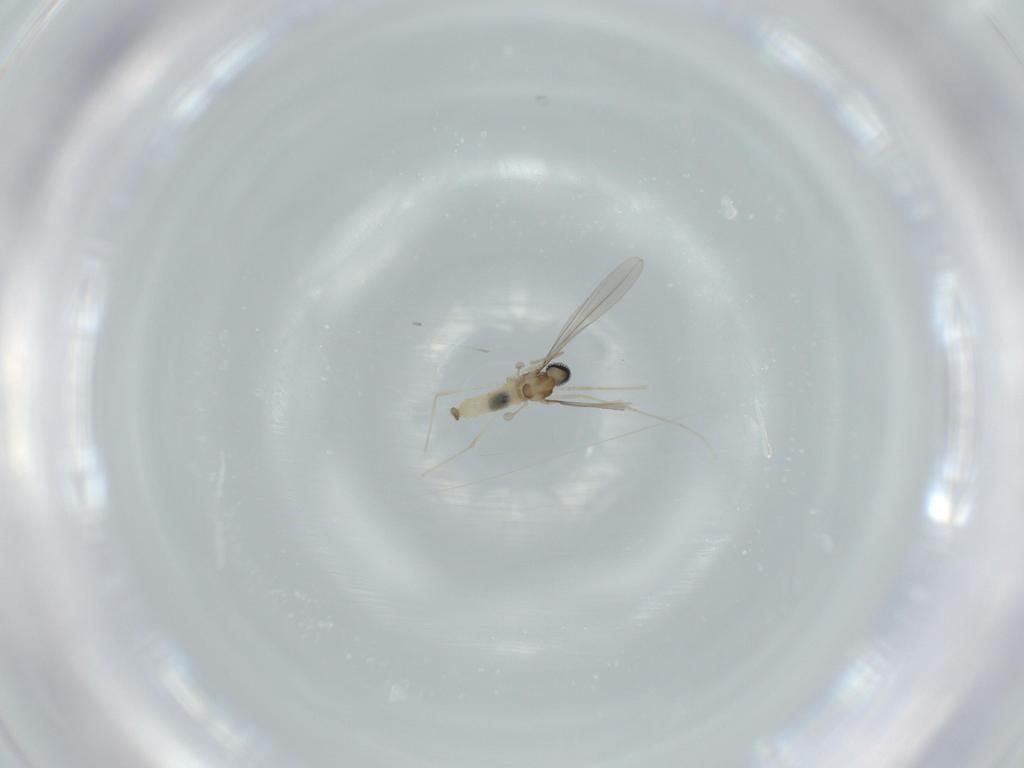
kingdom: Animalia
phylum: Arthropoda
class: Insecta
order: Diptera
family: Cecidomyiidae
